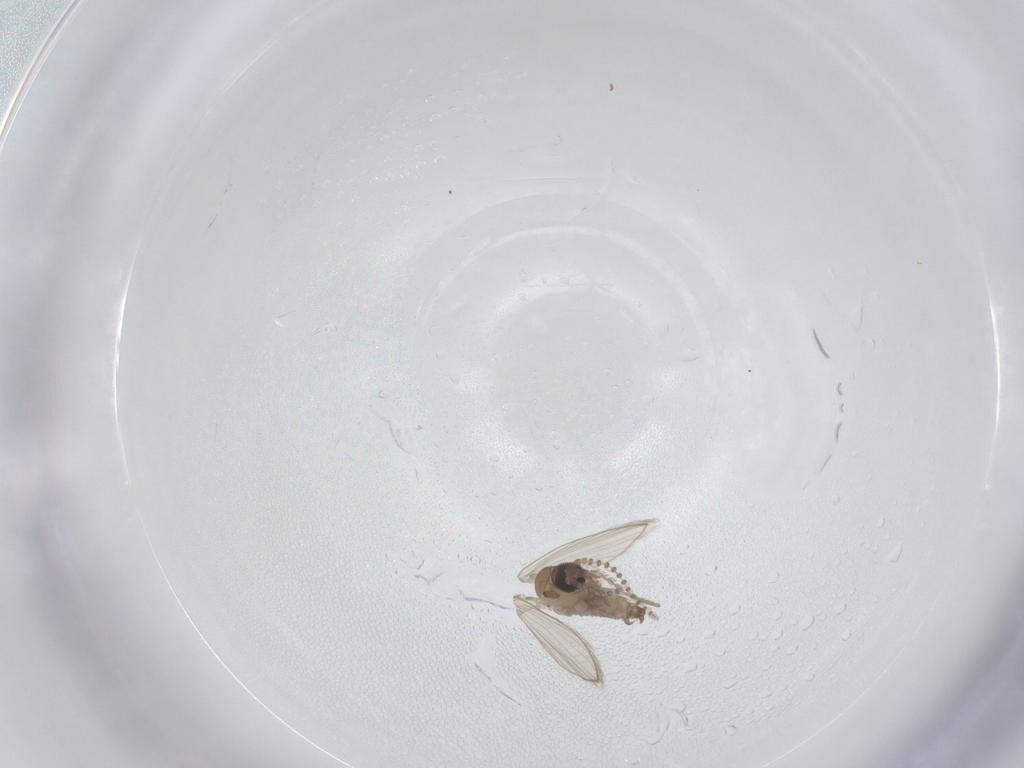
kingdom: Animalia
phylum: Arthropoda
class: Insecta
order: Diptera
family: Psychodidae
